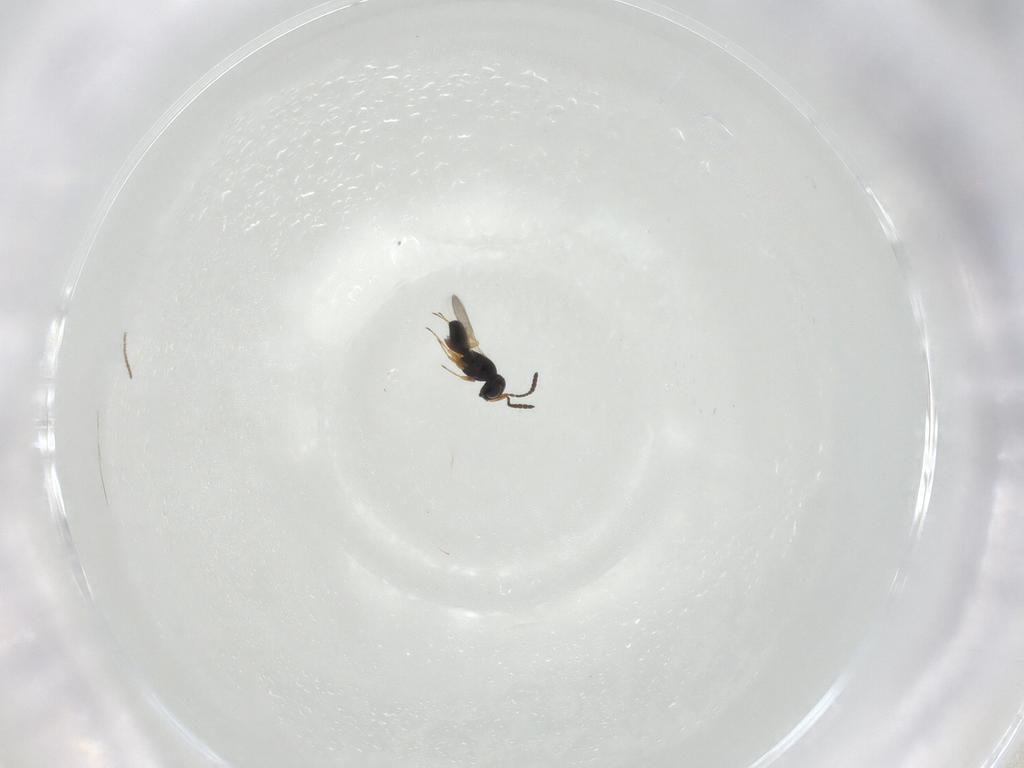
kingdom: Animalia
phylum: Arthropoda
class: Insecta
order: Hymenoptera
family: Scelionidae
